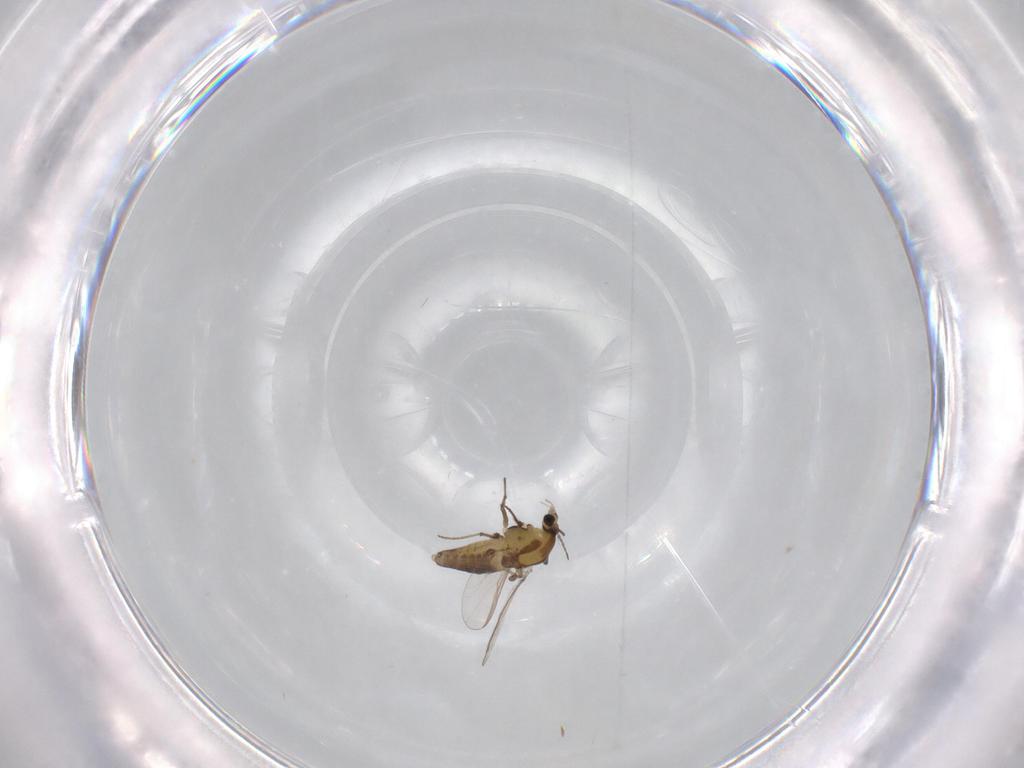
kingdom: Animalia
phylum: Arthropoda
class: Insecta
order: Diptera
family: Chironomidae
